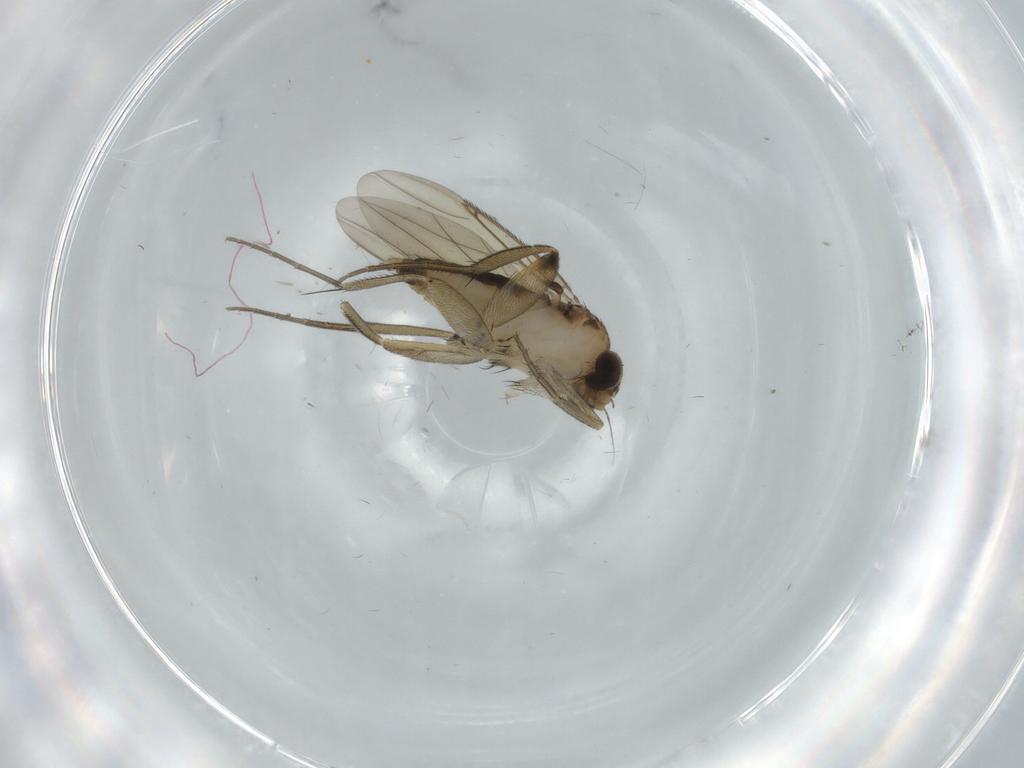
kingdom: Animalia
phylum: Arthropoda
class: Insecta
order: Diptera
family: Phoridae
